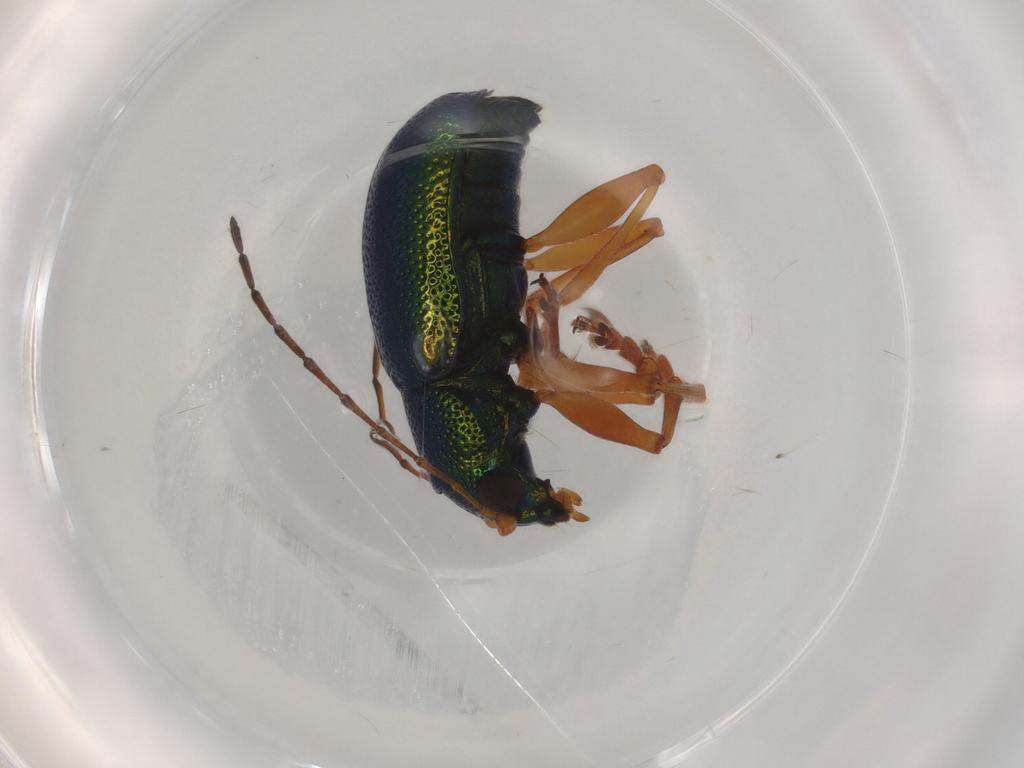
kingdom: Animalia
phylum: Arthropoda
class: Insecta
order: Coleoptera
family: Chrysomelidae
